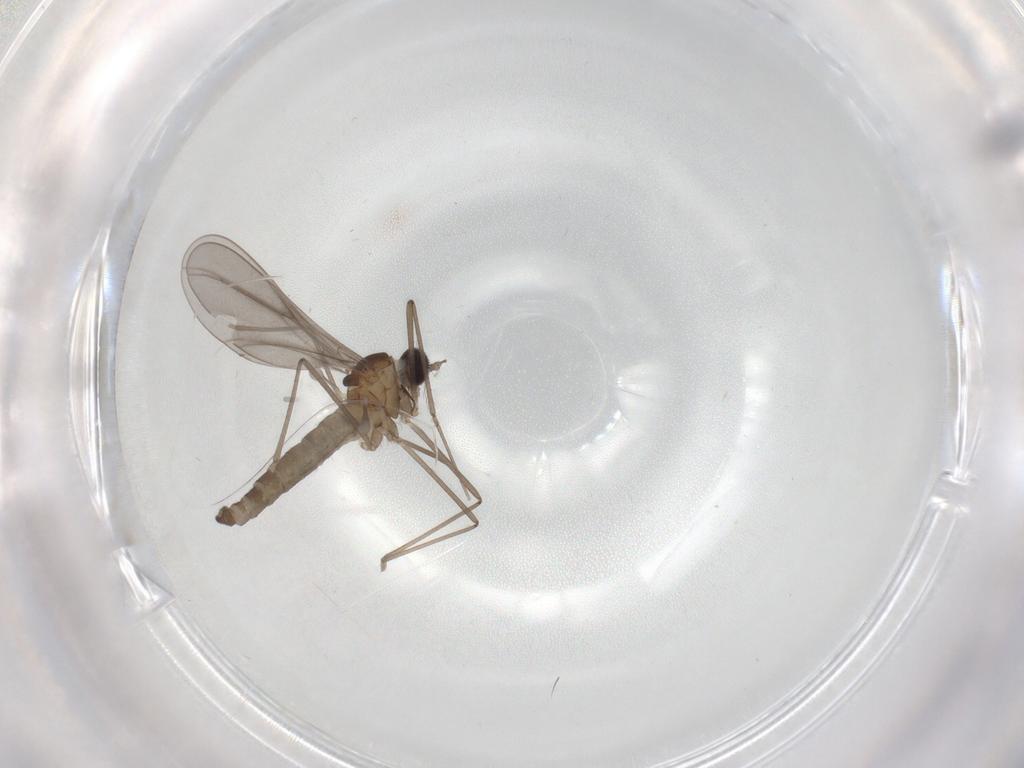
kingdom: Animalia
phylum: Arthropoda
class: Insecta
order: Diptera
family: Cecidomyiidae
